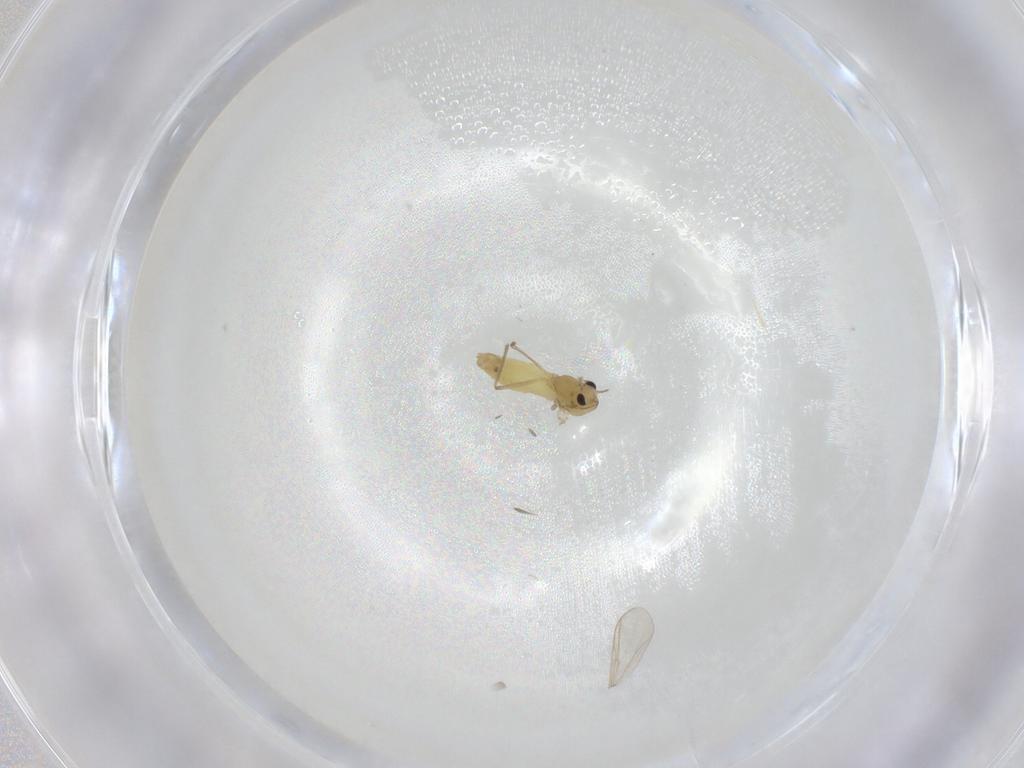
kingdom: Animalia
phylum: Arthropoda
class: Insecta
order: Diptera
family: Chironomidae
